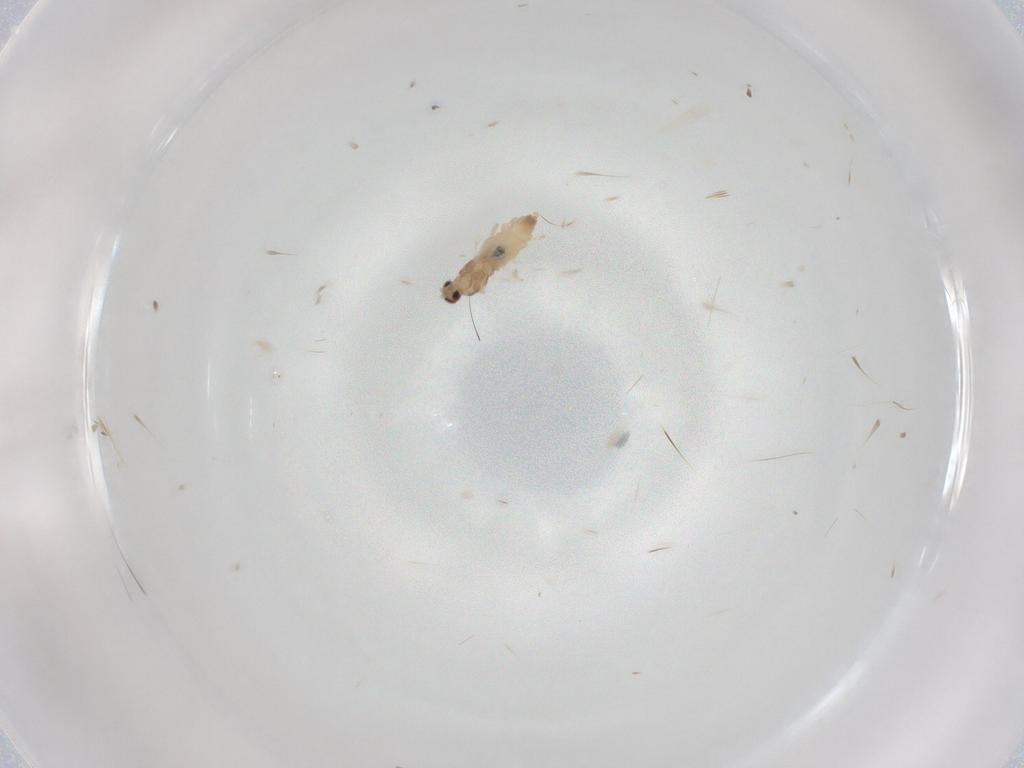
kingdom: Animalia
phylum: Arthropoda
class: Insecta
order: Diptera
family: Cecidomyiidae
